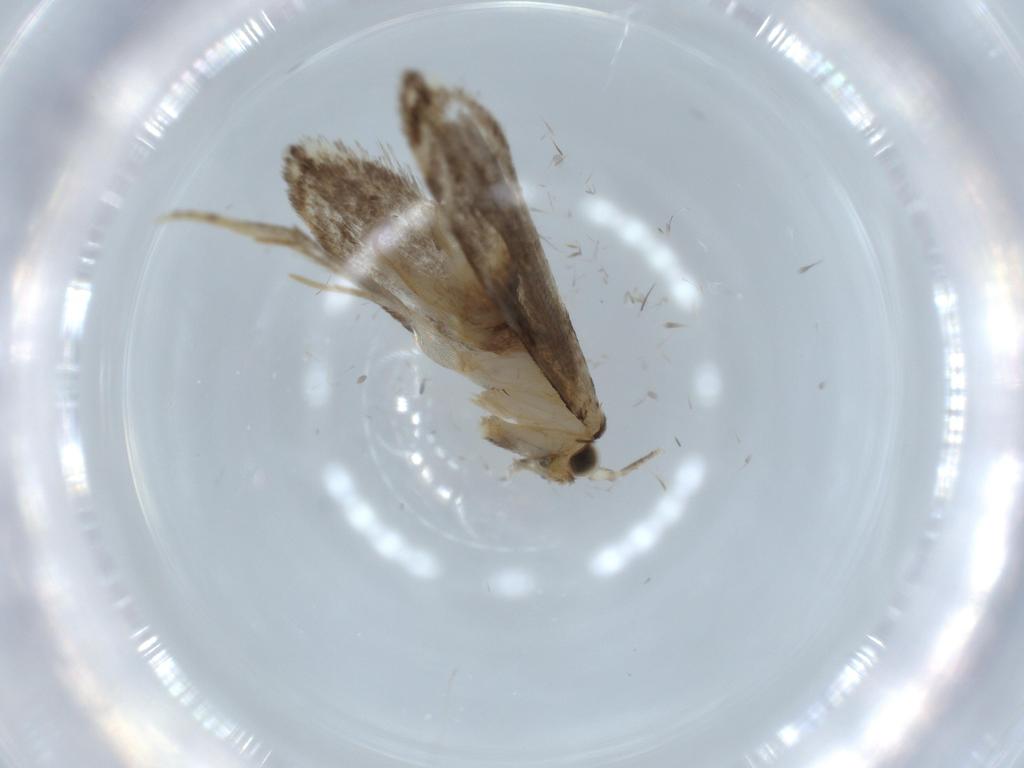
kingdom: Animalia
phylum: Arthropoda
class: Insecta
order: Lepidoptera
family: Tineidae
